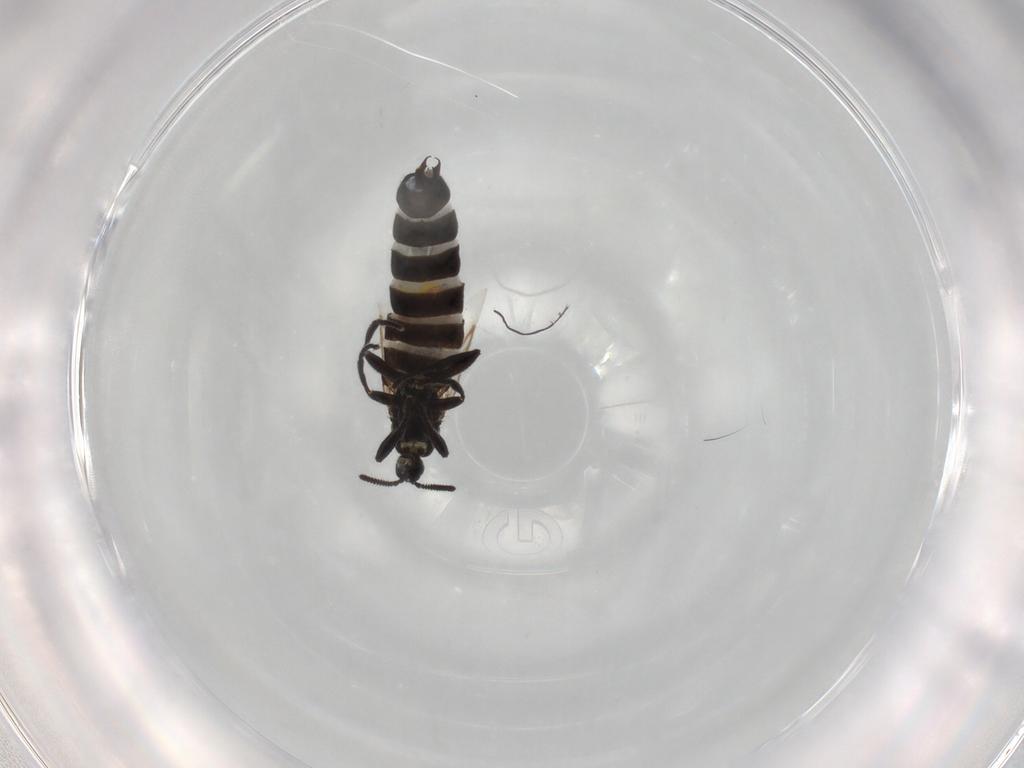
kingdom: Animalia
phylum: Arthropoda
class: Insecta
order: Diptera
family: Scatopsidae
